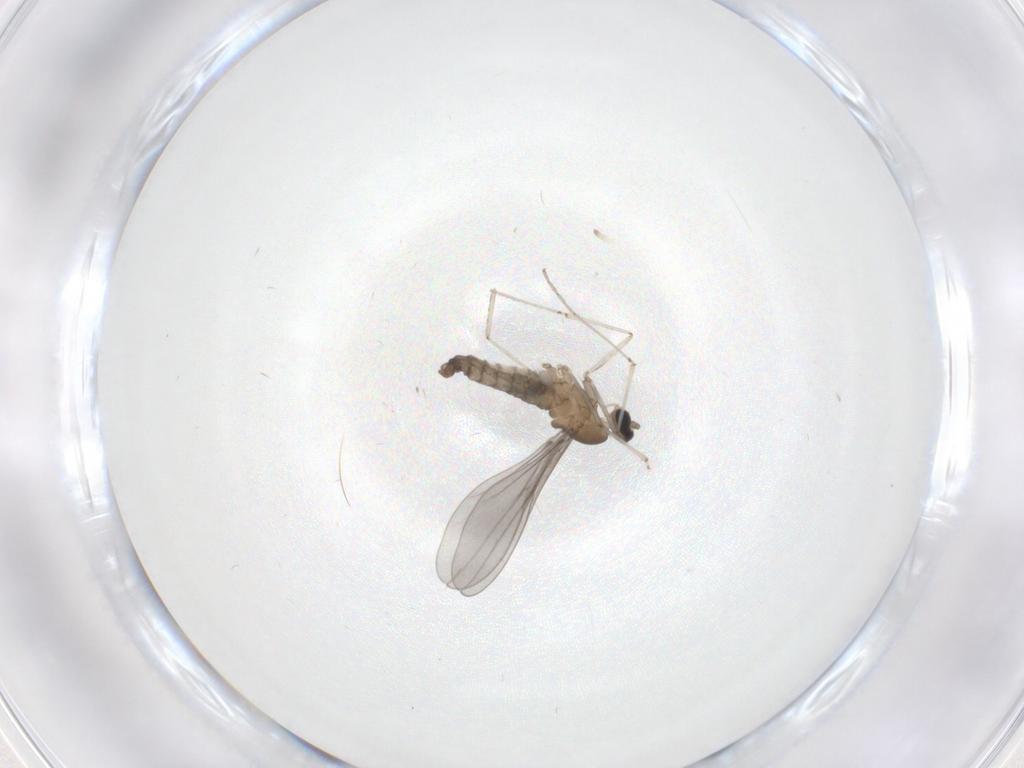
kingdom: Animalia
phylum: Arthropoda
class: Insecta
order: Diptera
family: Cecidomyiidae
